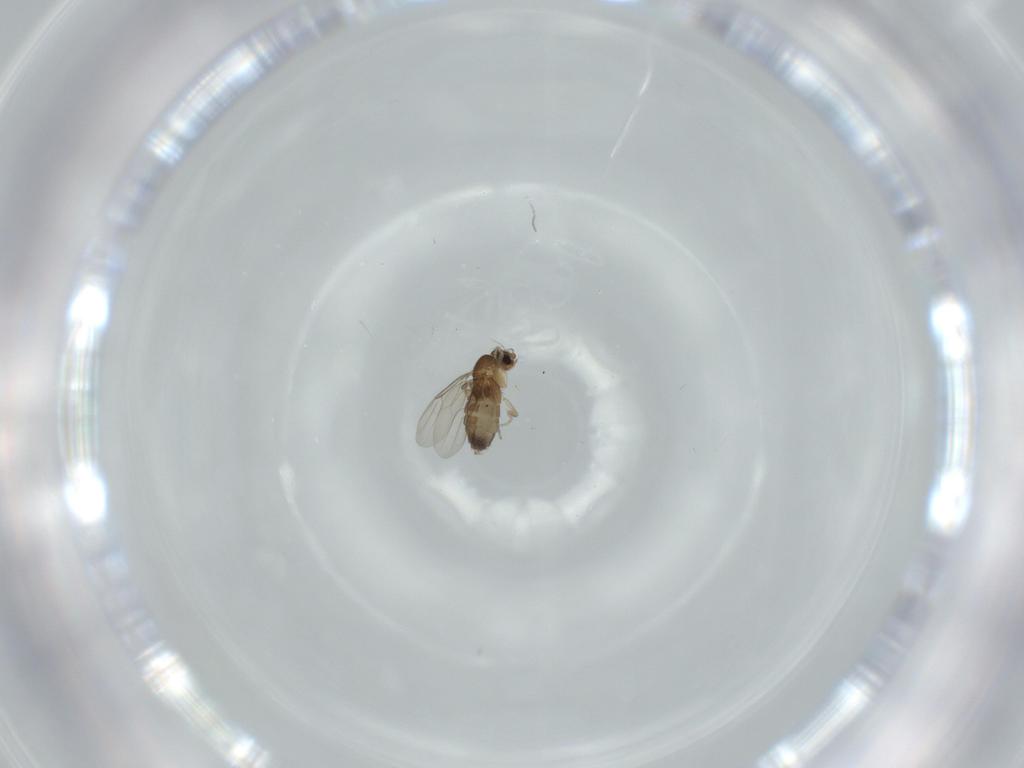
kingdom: Animalia
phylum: Arthropoda
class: Insecta
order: Diptera
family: Phoridae
